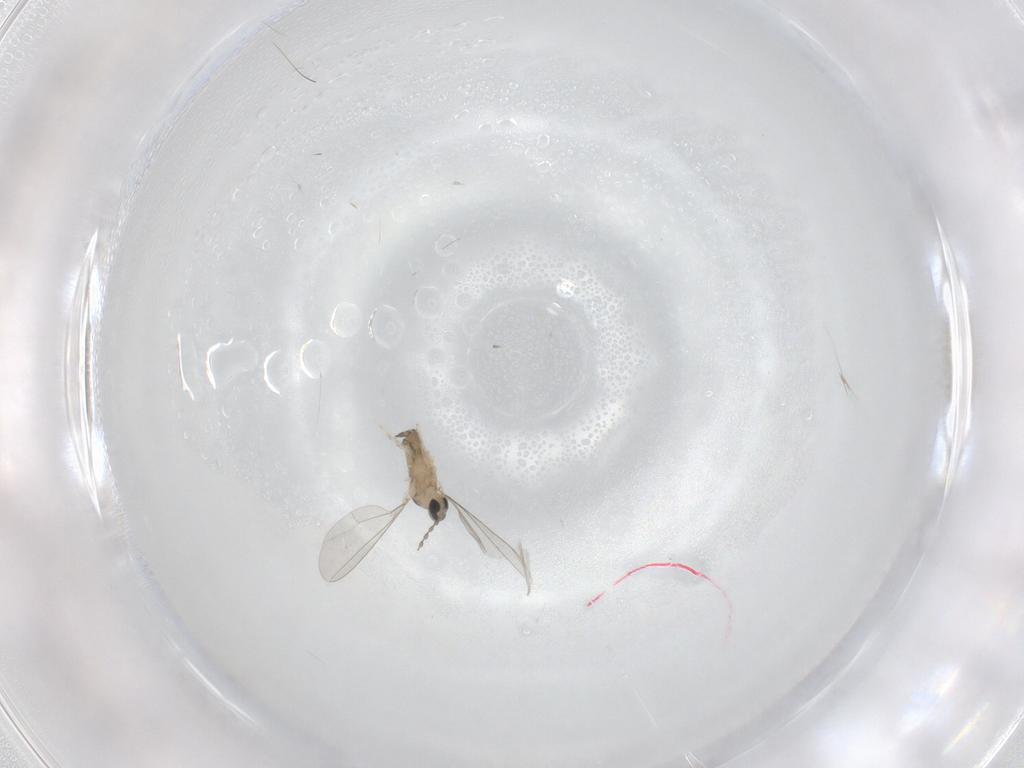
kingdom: Animalia
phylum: Arthropoda
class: Insecta
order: Diptera
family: Cecidomyiidae
